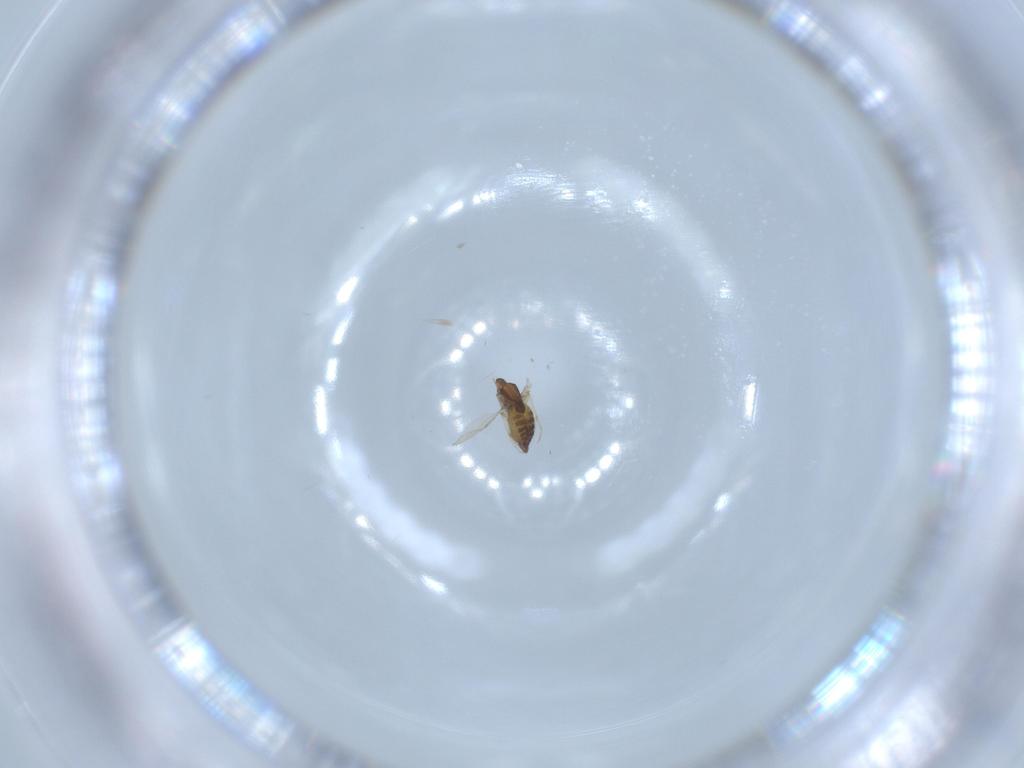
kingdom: Animalia
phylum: Arthropoda
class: Insecta
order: Diptera
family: Chironomidae
